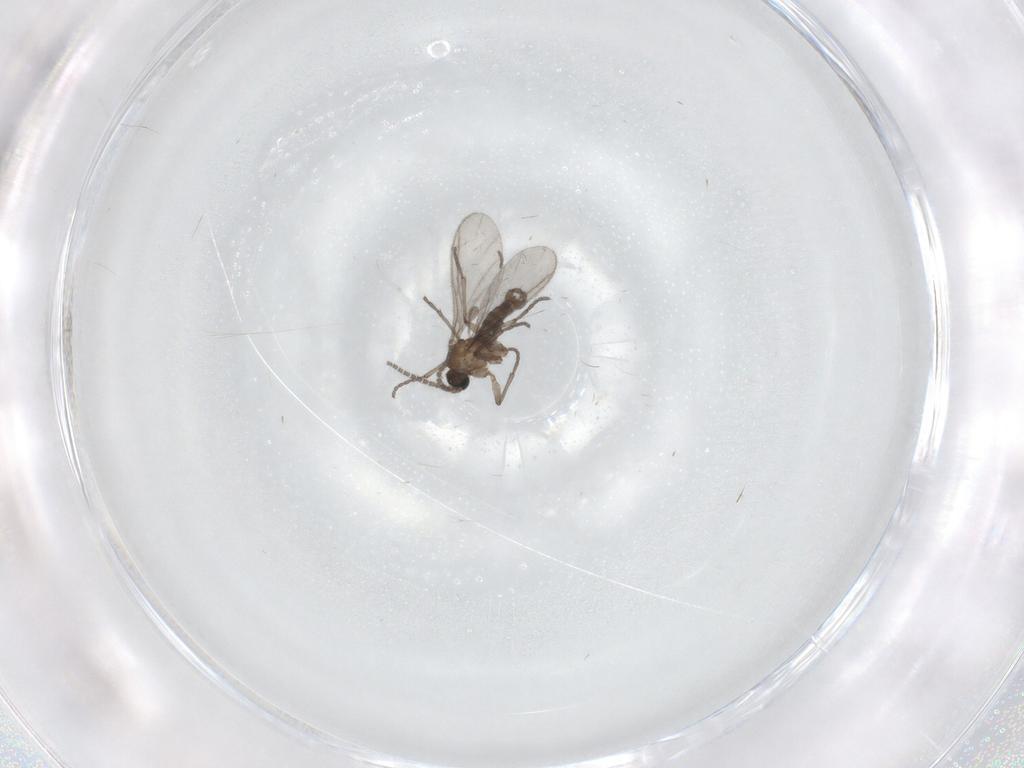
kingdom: Animalia
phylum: Arthropoda
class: Insecta
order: Diptera
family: Sciaridae
